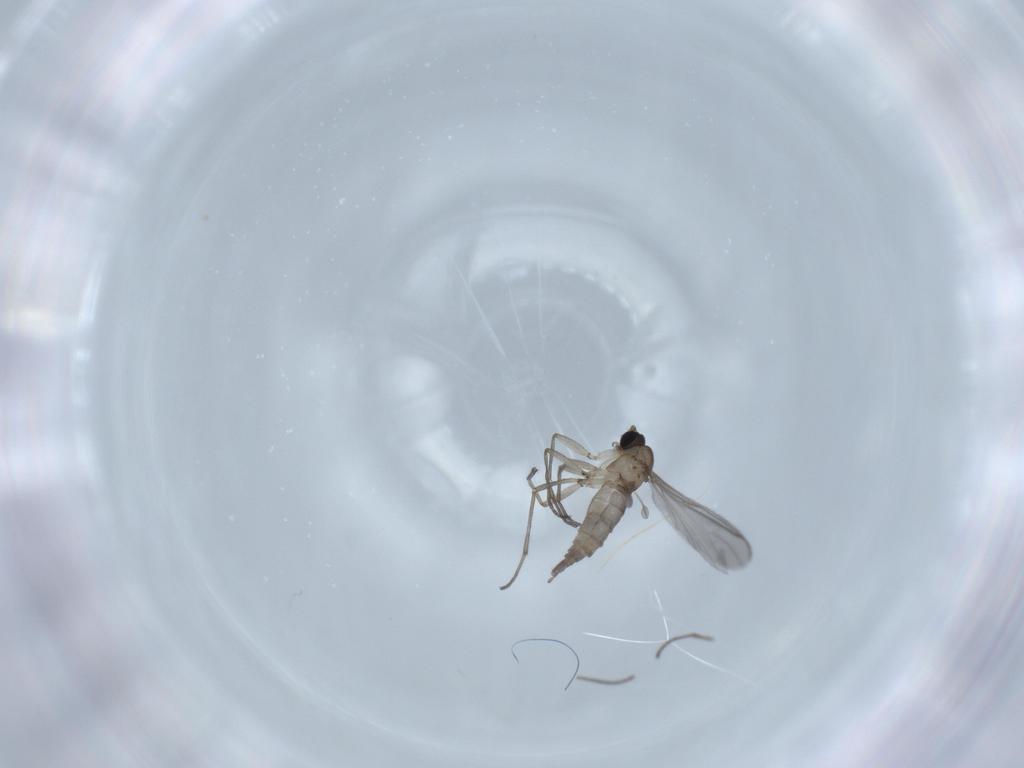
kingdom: Animalia
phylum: Arthropoda
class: Insecta
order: Diptera
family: Sciaridae
